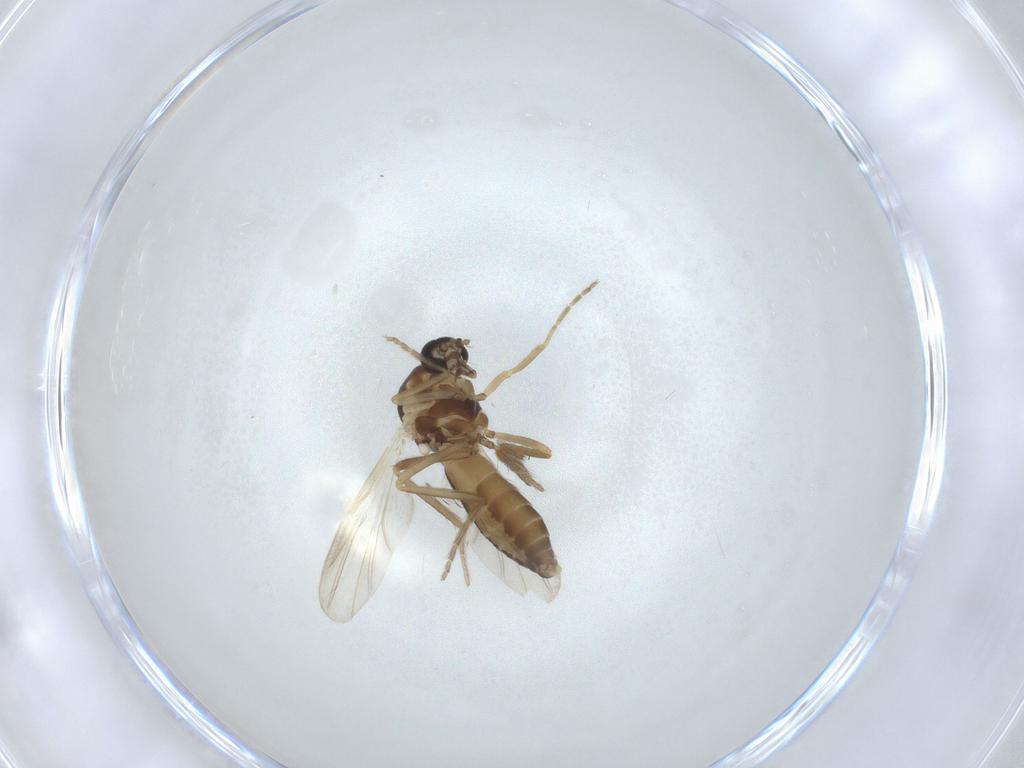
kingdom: Animalia
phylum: Arthropoda
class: Insecta
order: Diptera
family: Ceratopogonidae
